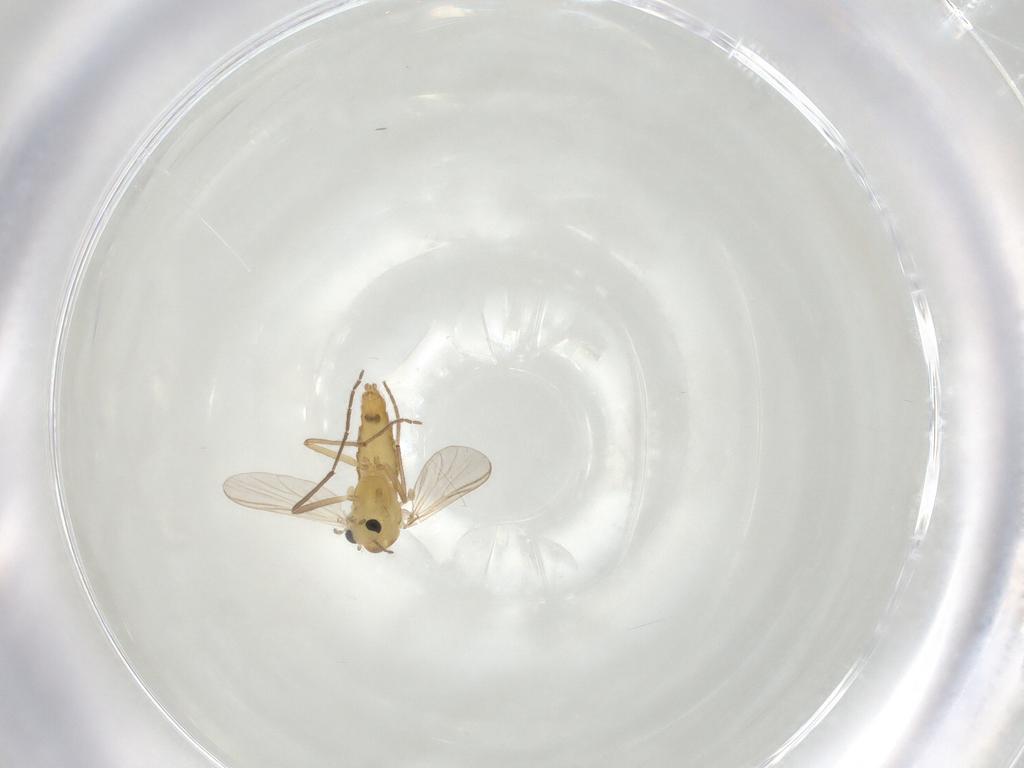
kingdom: Animalia
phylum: Arthropoda
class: Insecta
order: Diptera
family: Chironomidae
